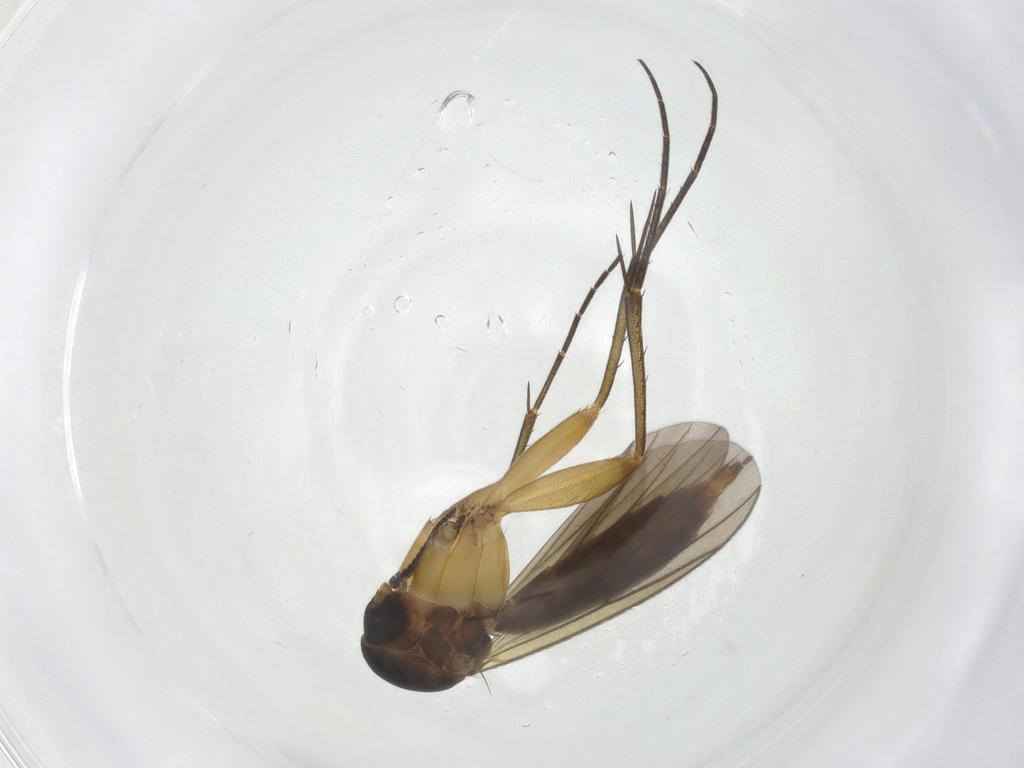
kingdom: Animalia
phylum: Arthropoda
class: Insecta
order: Diptera
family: Mycetophilidae
